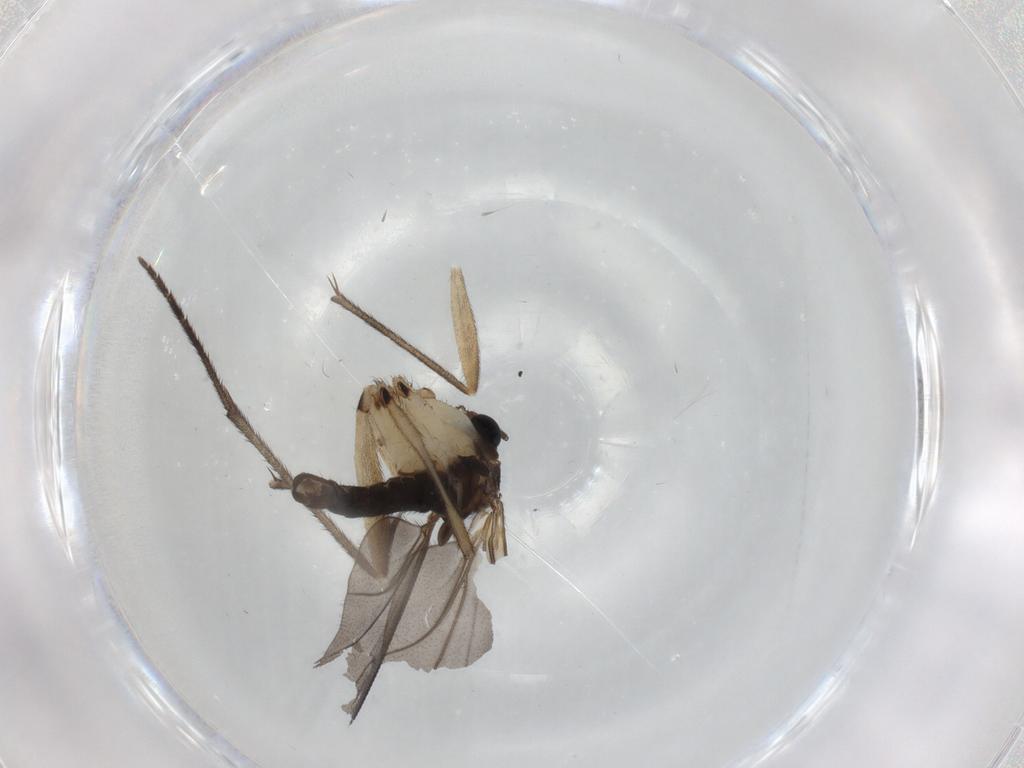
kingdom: Animalia
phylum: Arthropoda
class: Insecta
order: Diptera
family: Sciaridae
